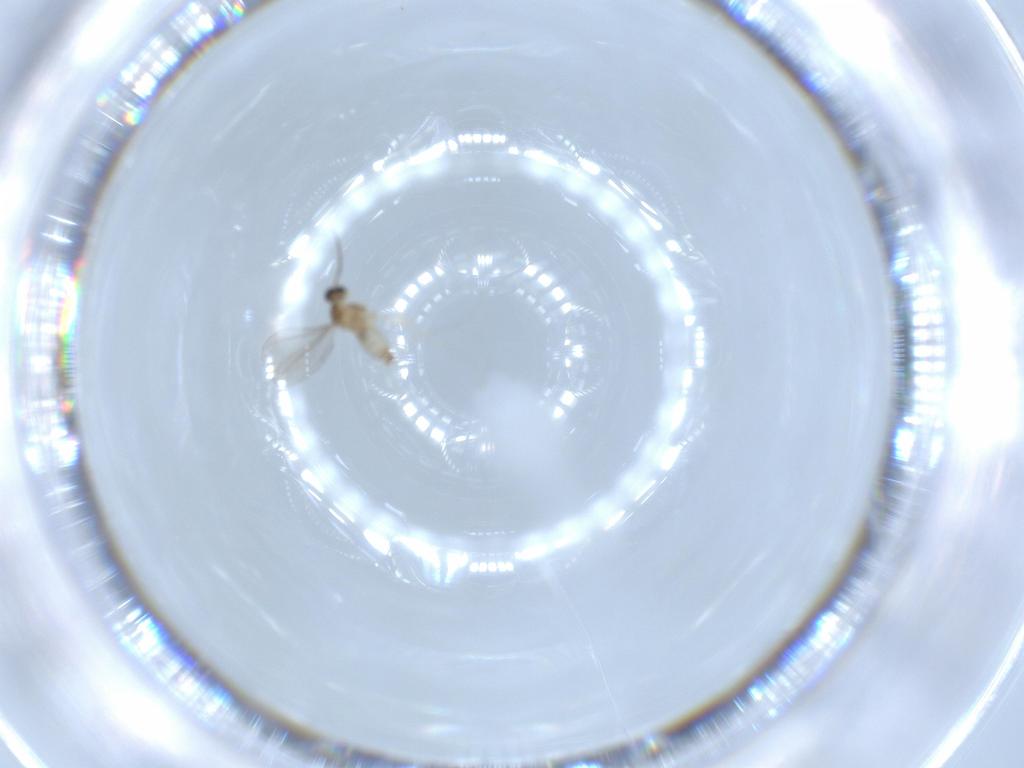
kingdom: Animalia
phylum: Arthropoda
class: Insecta
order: Diptera
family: Cecidomyiidae
